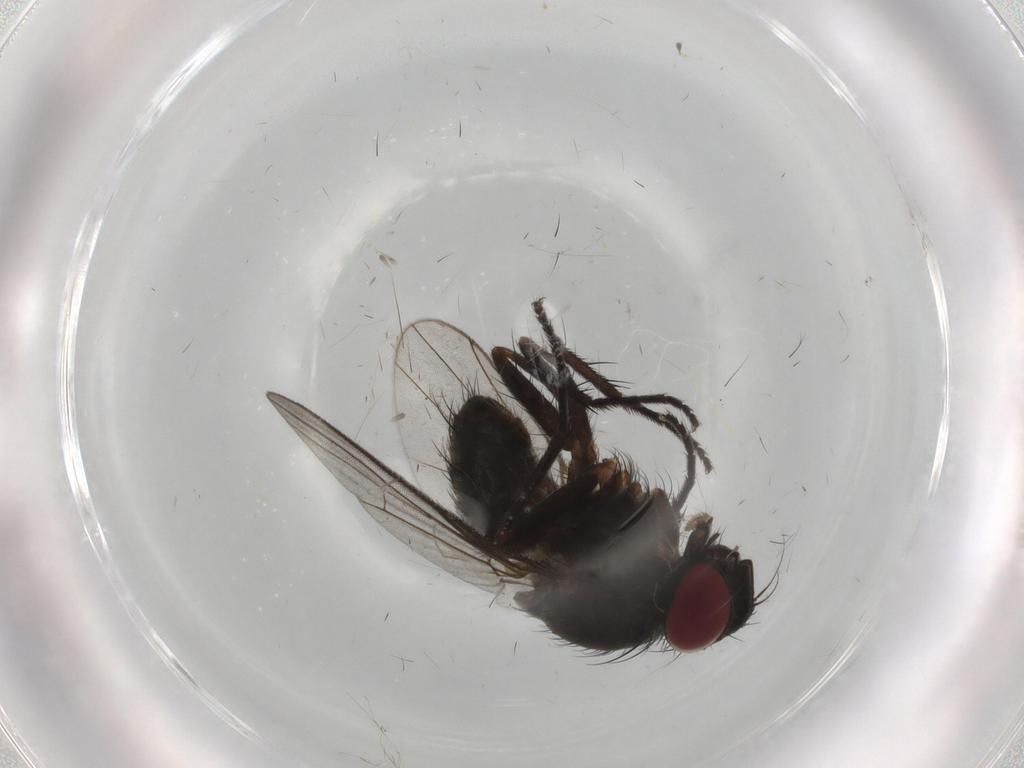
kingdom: Animalia
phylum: Arthropoda
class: Insecta
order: Diptera
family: Muscidae
